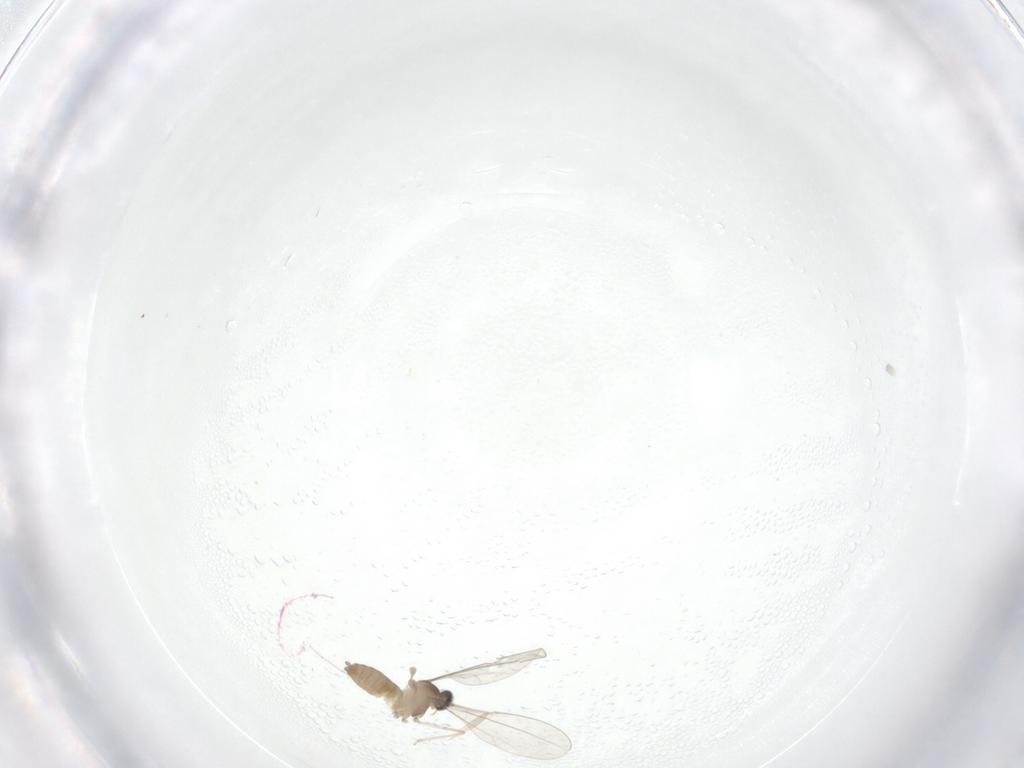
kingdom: Animalia
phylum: Arthropoda
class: Insecta
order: Diptera
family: Cecidomyiidae
